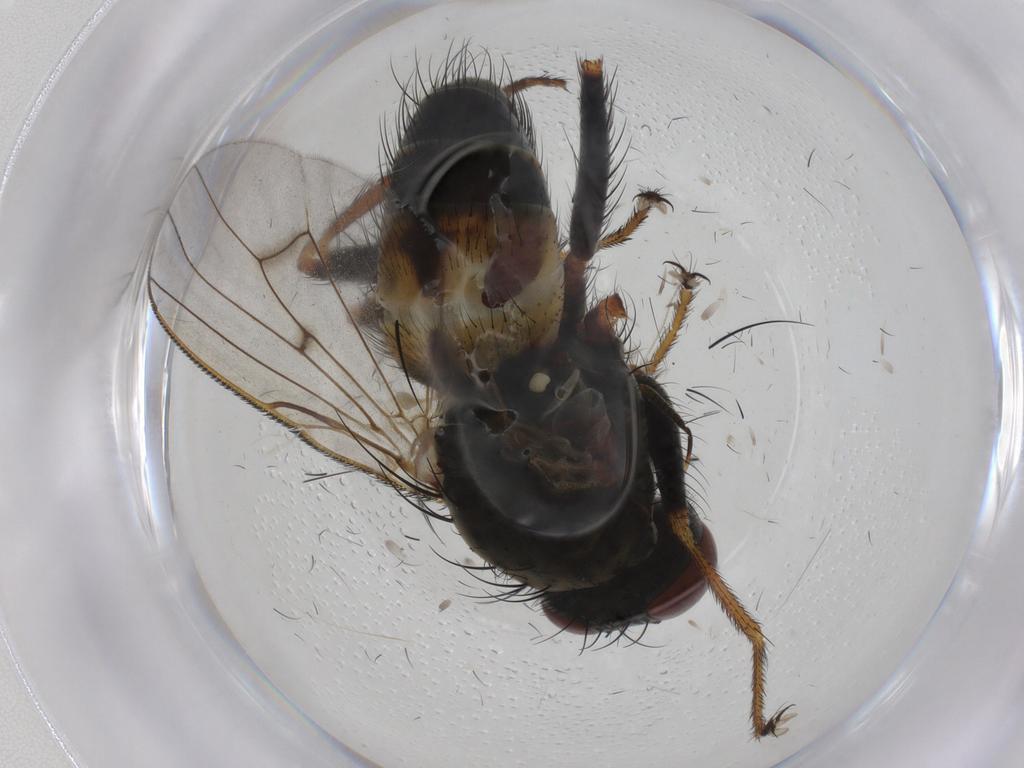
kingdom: Animalia
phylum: Arthropoda
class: Insecta
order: Diptera
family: Muscidae
